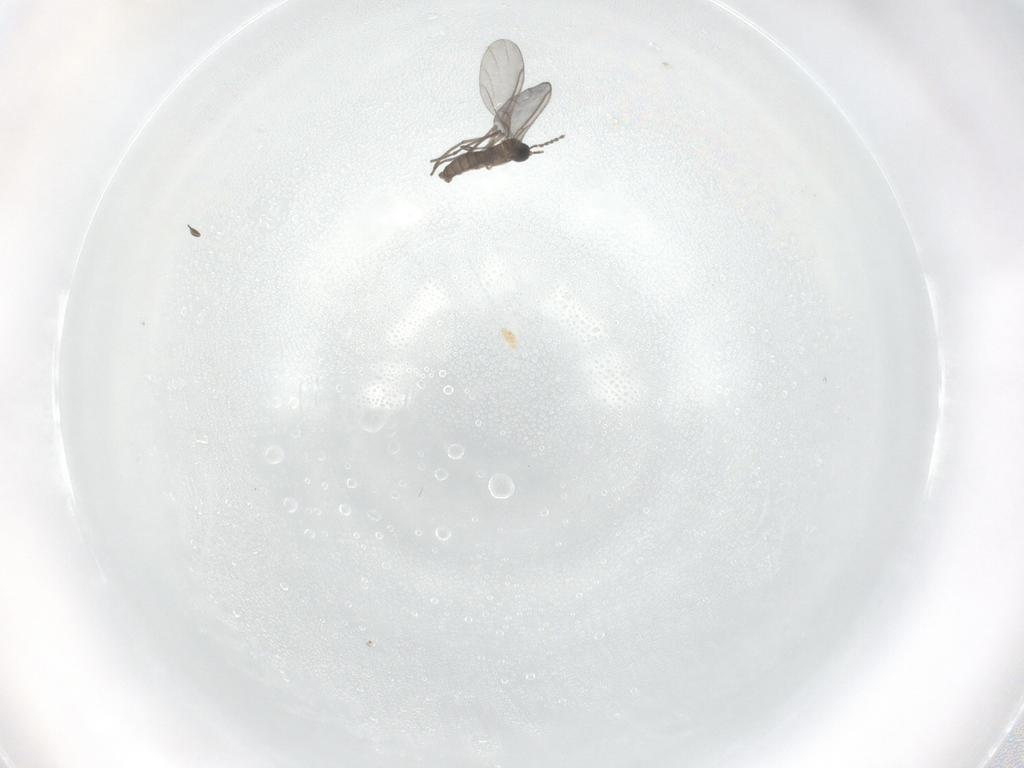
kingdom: Animalia
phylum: Arthropoda
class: Insecta
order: Diptera
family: Sciaridae
